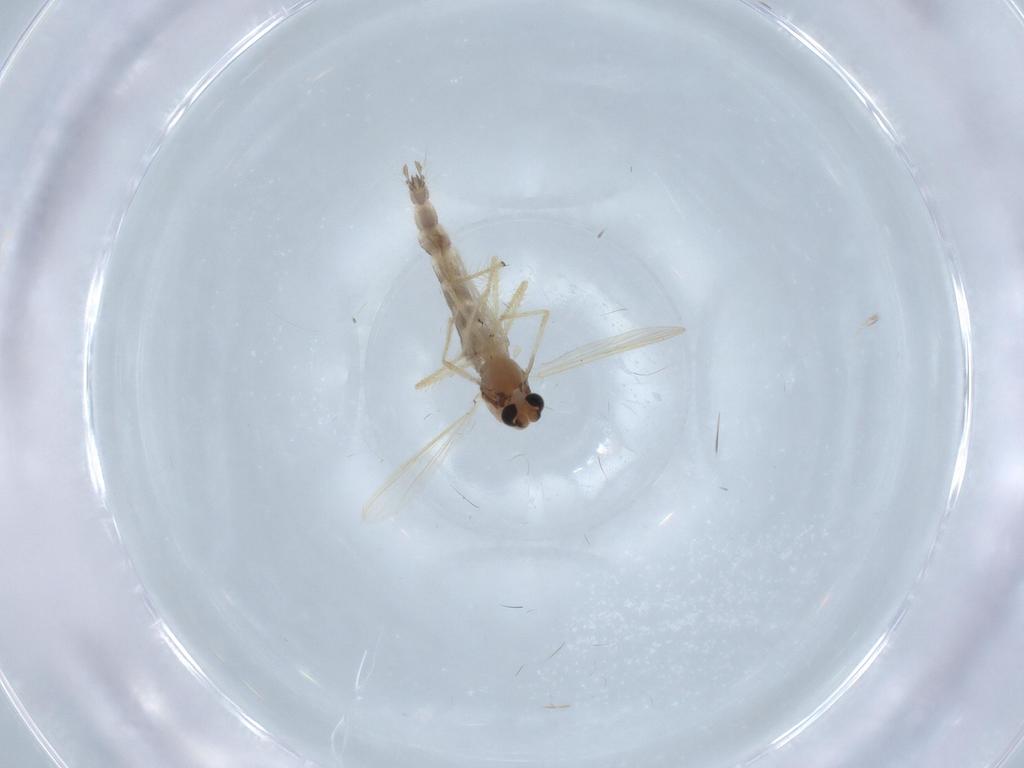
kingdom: Animalia
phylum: Arthropoda
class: Insecta
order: Diptera
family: Chironomidae
